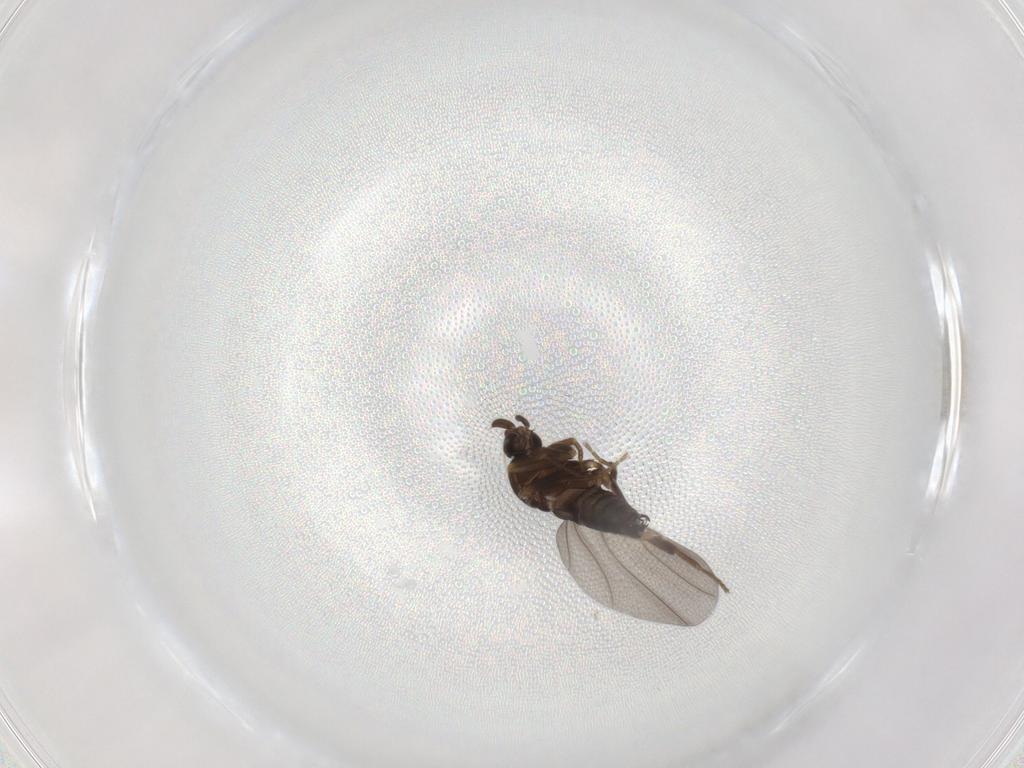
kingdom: Animalia
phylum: Arthropoda
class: Insecta
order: Diptera
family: Phoridae
